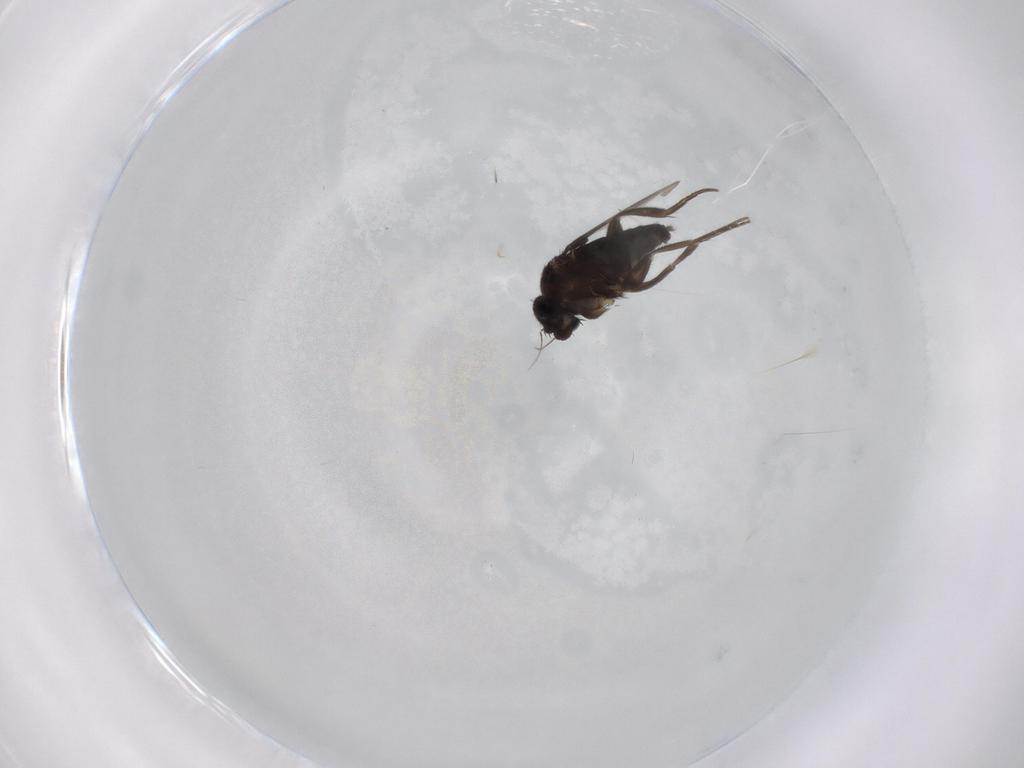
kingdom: Animalia
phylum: Arthropoda
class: Insecta
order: Diptera
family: Phoridae
